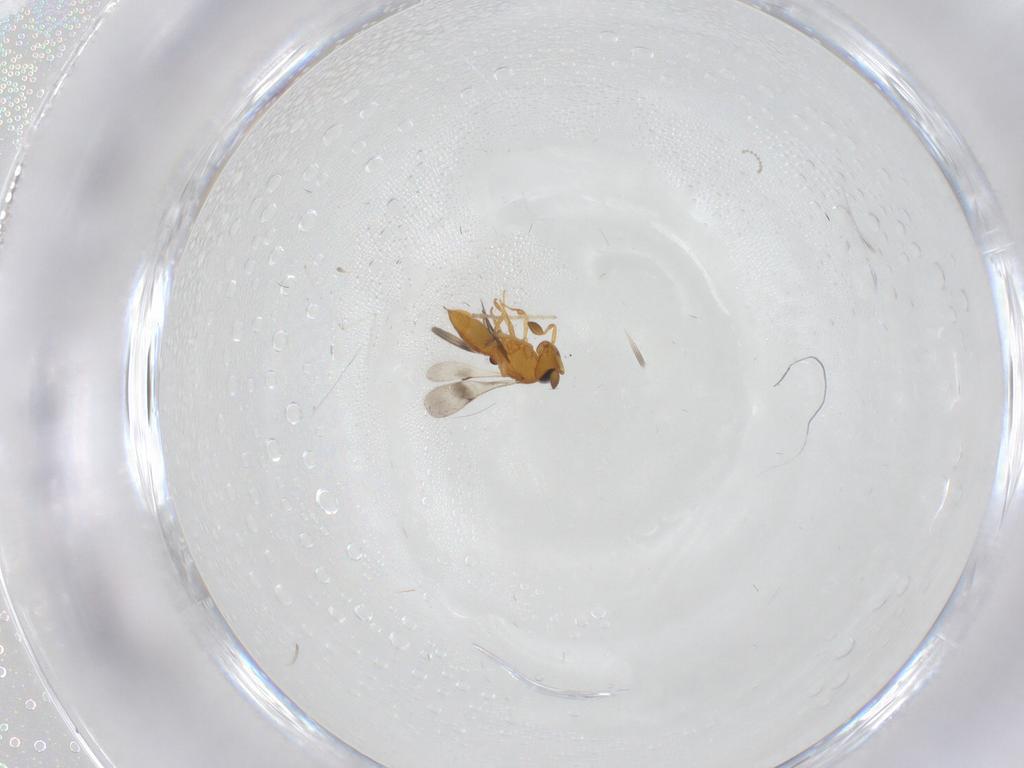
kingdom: Animalia
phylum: Arthropoda
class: Insecta
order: Hymenoptera
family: Scelionidae
